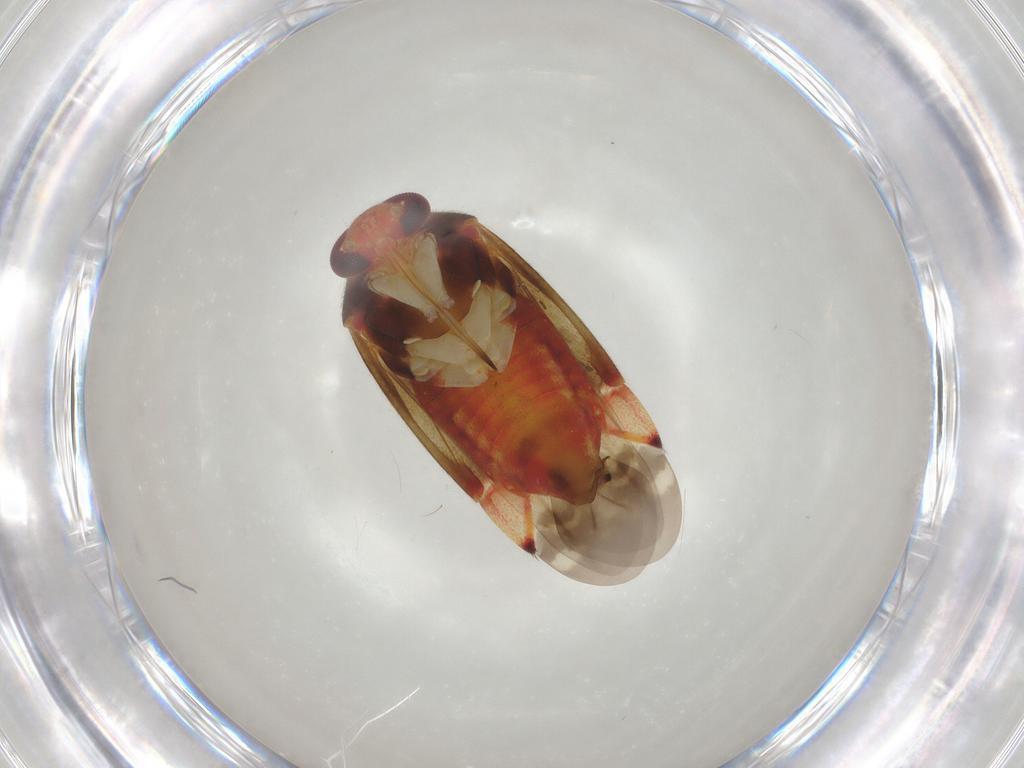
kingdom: Animalia
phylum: Arthropoda
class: Insecta
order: Hemiptera
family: Miridae
